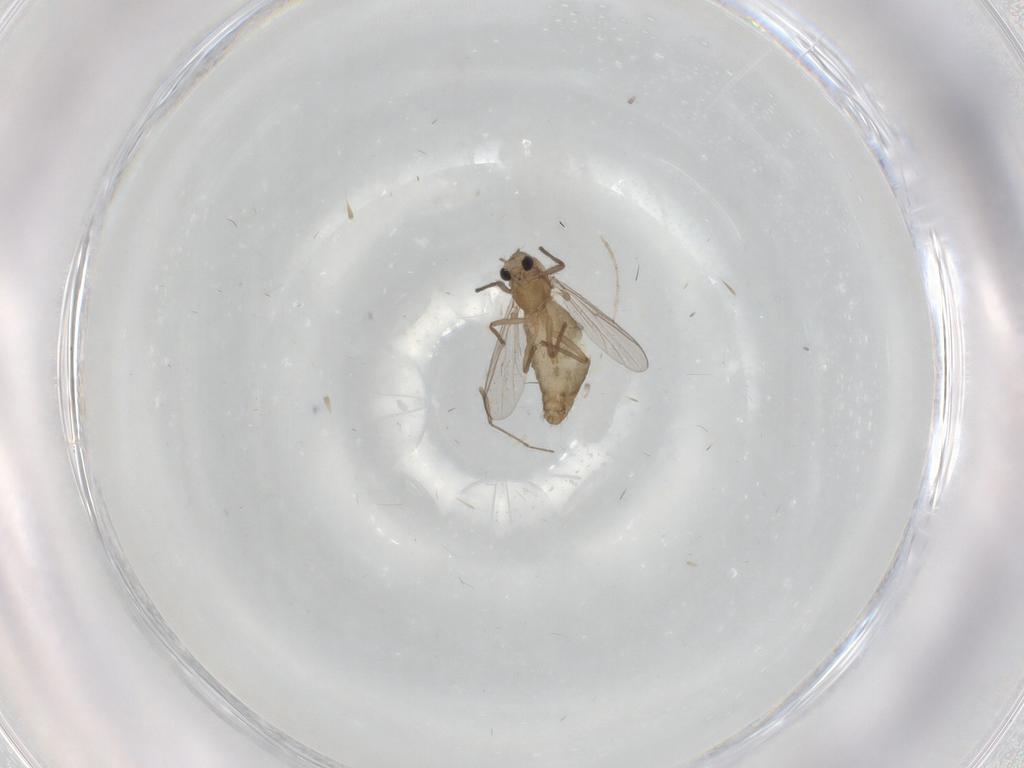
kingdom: Animalia
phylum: Arthropoda
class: Insecta
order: Diptera
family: Chironomidae
